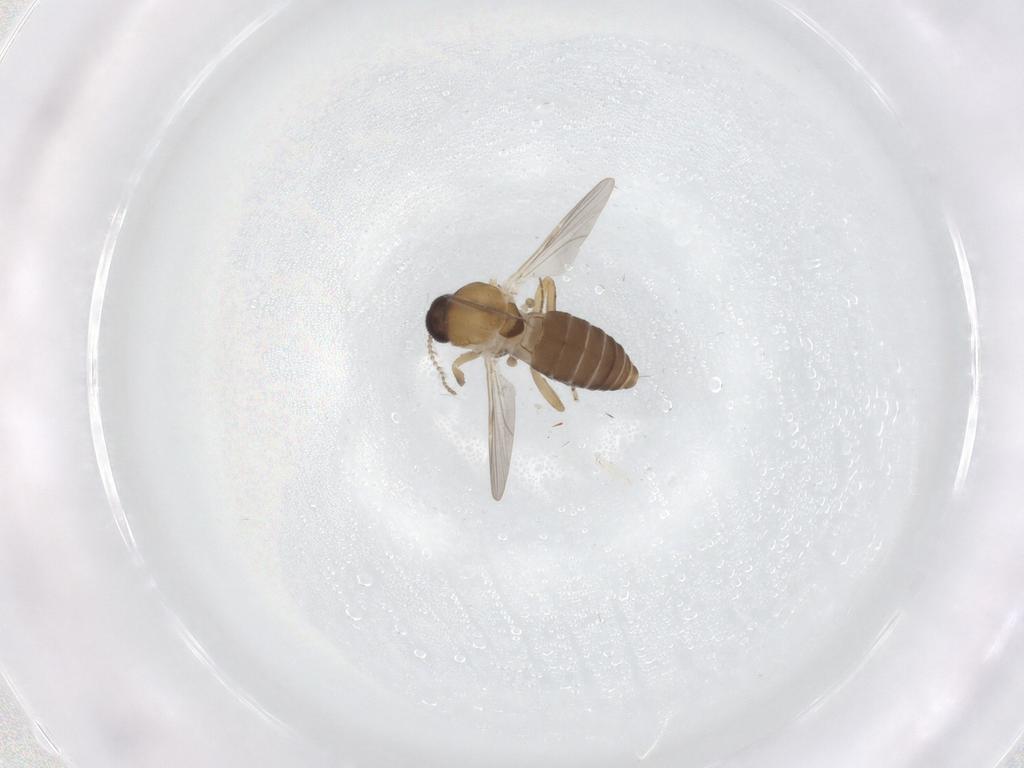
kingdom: Animalia
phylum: Arthropoda
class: Insecta
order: Diptera
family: Ceratopogonidae
